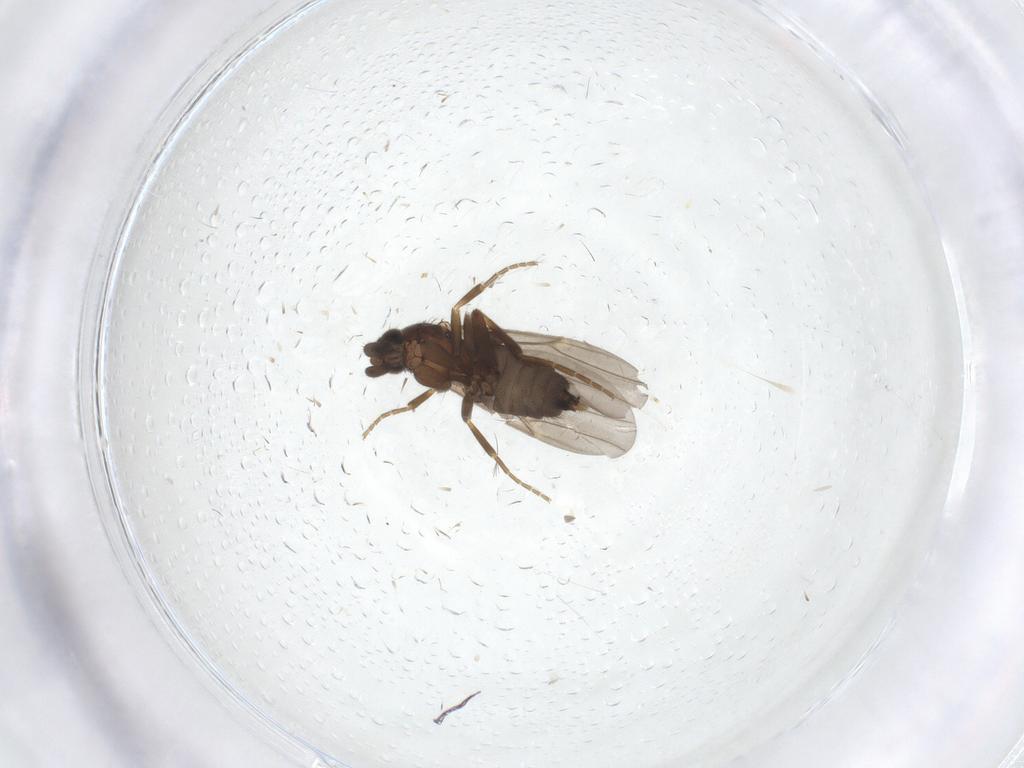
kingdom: Animalia
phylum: Arthropoda
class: Insecta
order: Diptera
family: Phoridae
